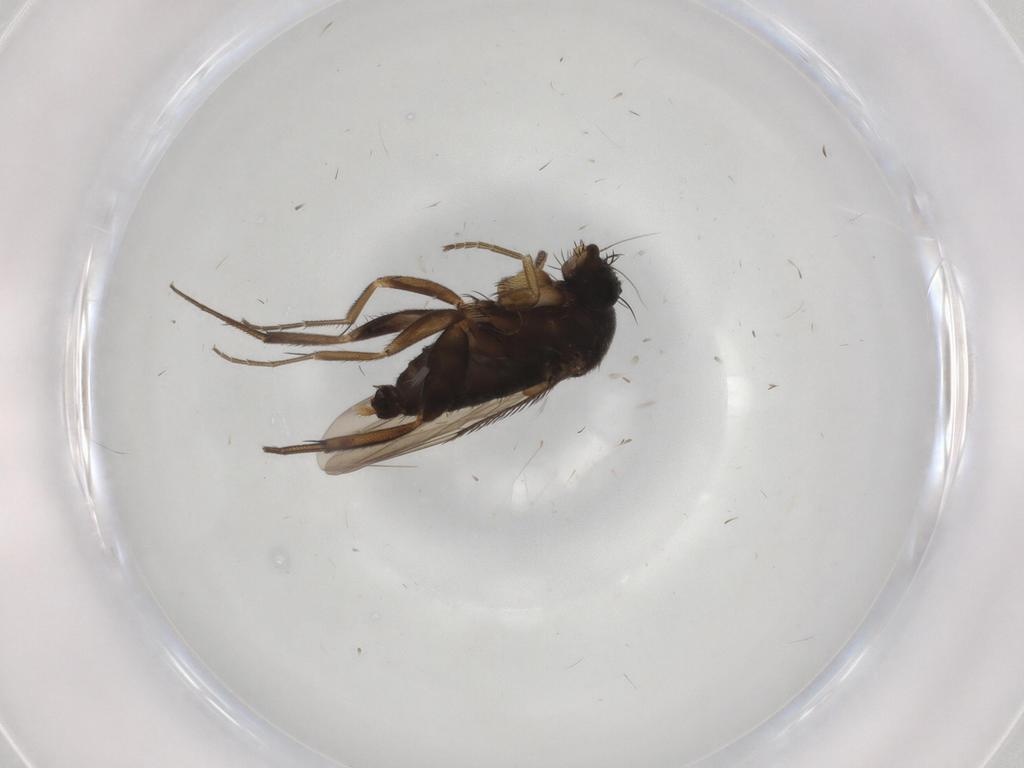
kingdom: Animalia
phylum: Arthropoda
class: Insecta
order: Diptera
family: Phoridae
